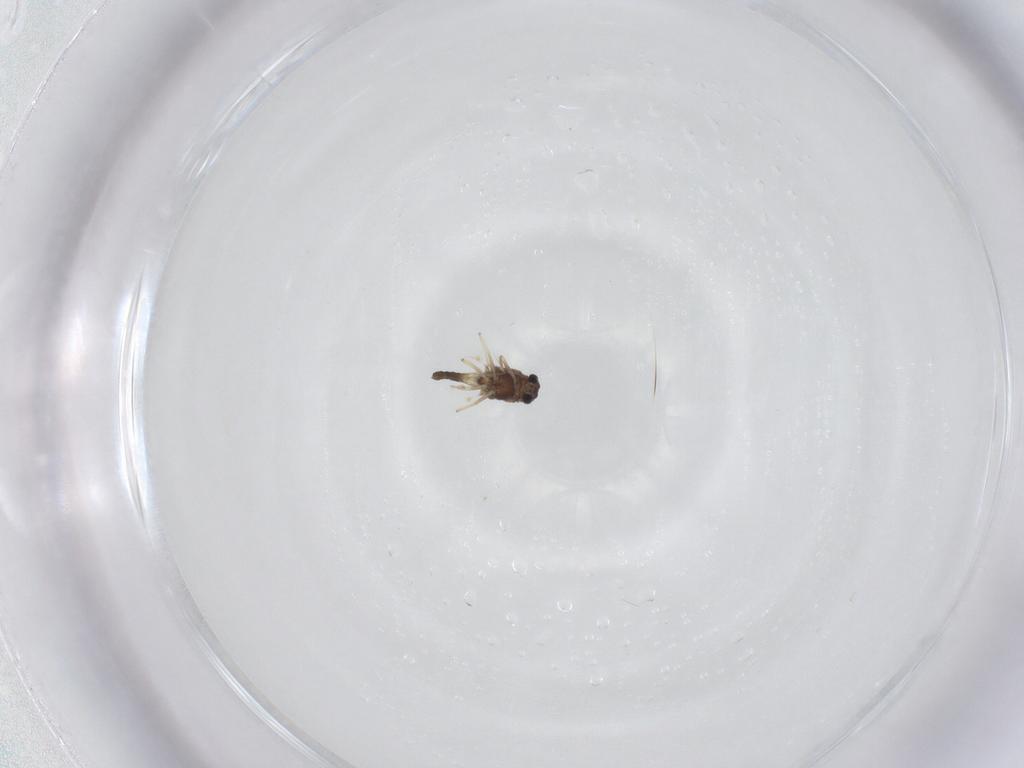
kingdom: Animalia
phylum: Arthropoda
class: Insecta
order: Diptera
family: Chironomidae
